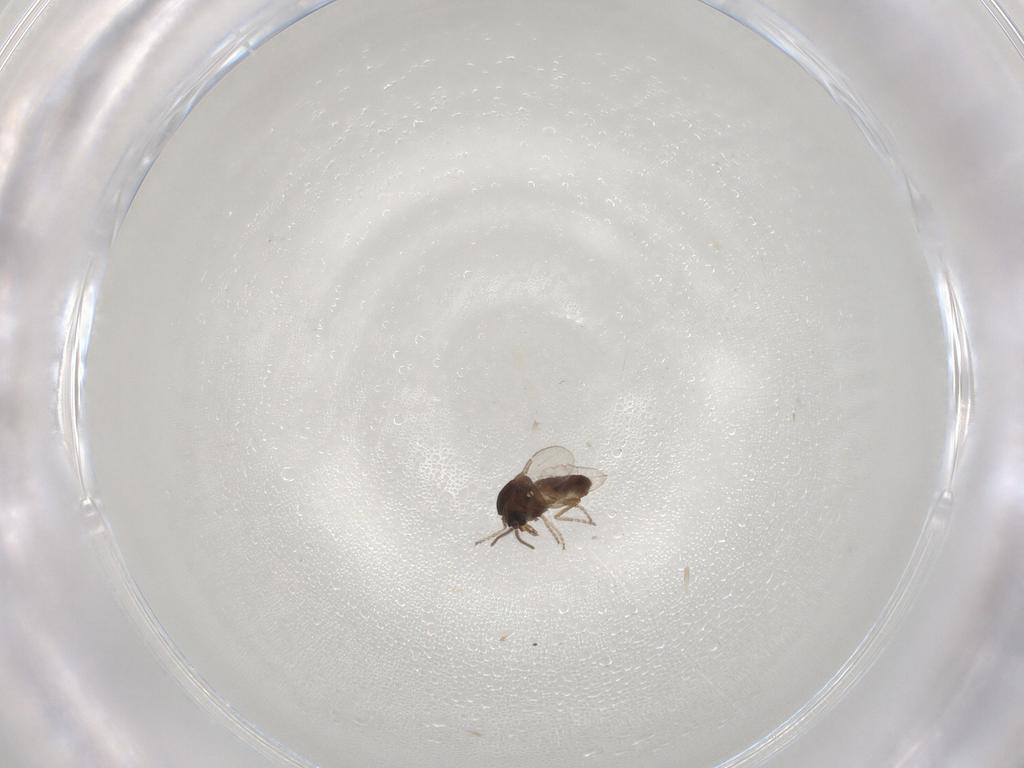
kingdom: Animalia
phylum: Arthropoda
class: Insecta
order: Diptera
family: Ceratopogonidae
